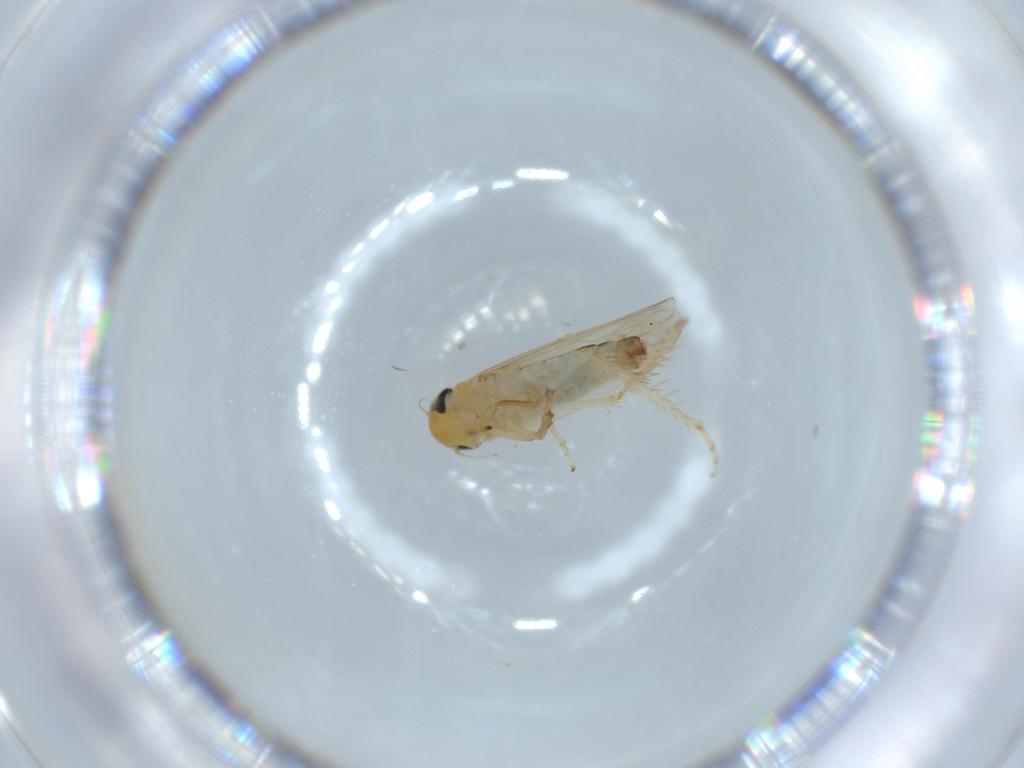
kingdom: Animalia
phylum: Arthropoda
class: Insecta
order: Hemiptera
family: Cicadellidae
